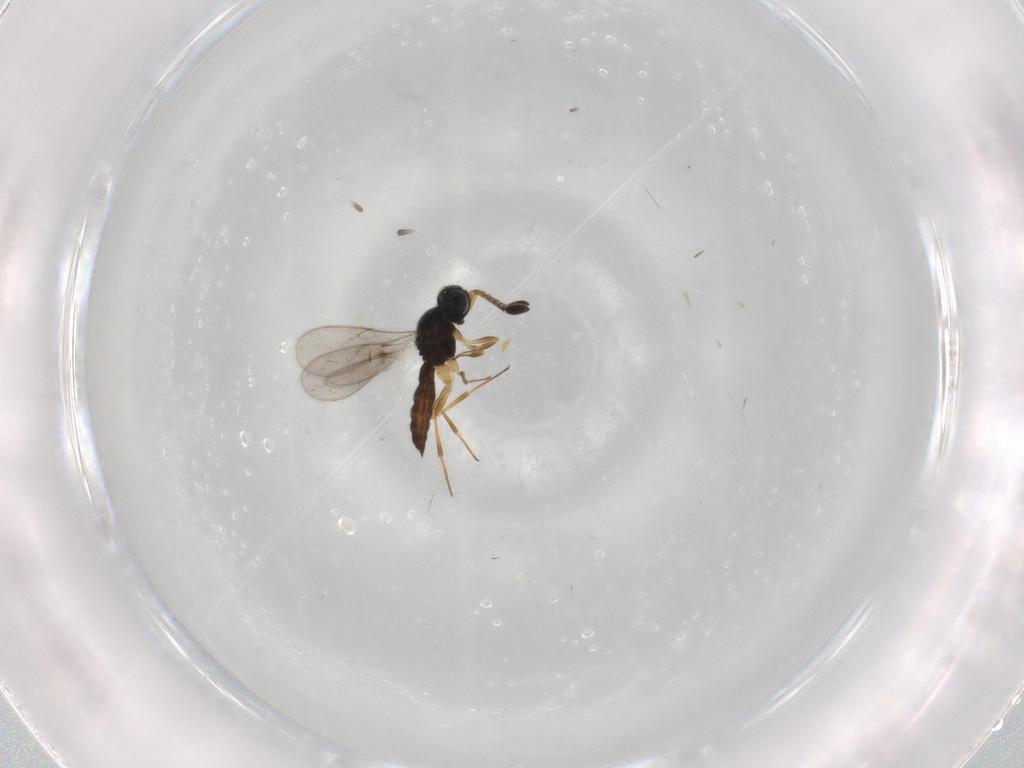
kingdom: Animalia
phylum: Arthropoda
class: Insecta
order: Hymenoptera
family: Scelionidae
